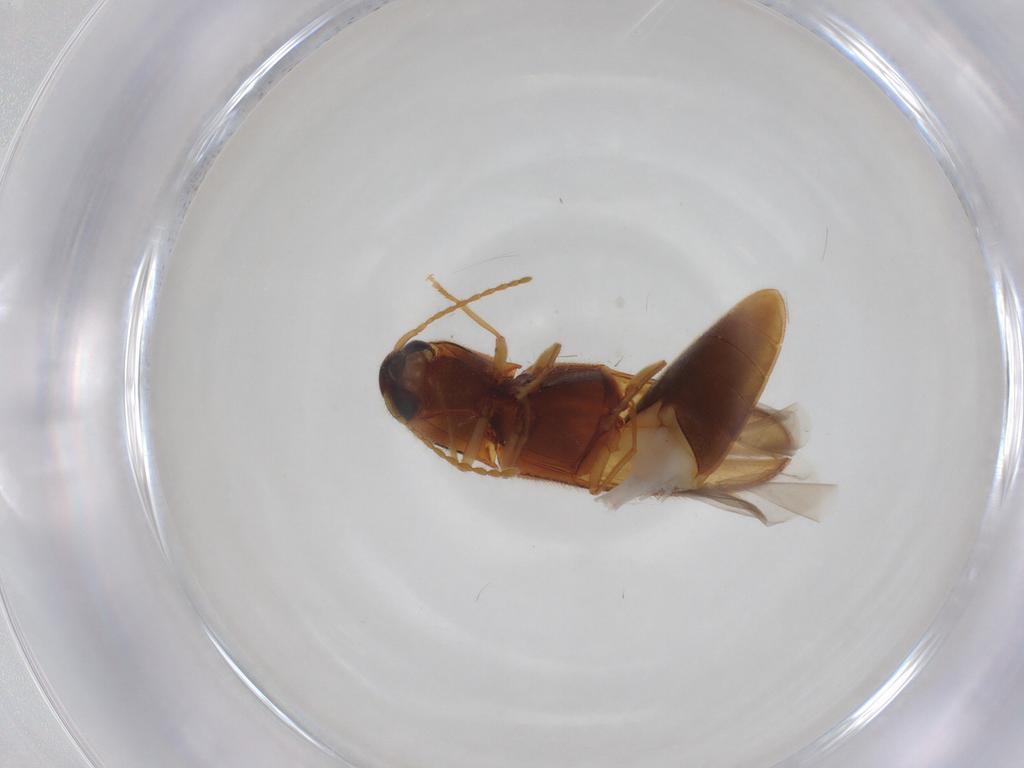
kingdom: Animalia
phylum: Arthropoda
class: Insecta
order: Coleoptera
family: Elateridae
